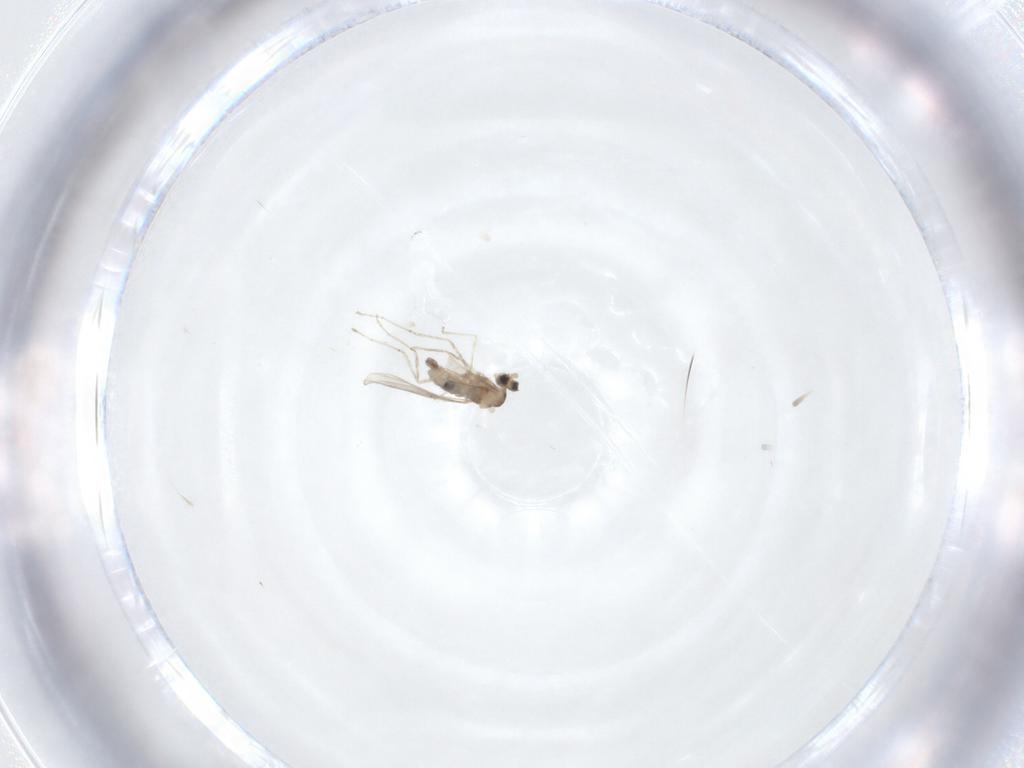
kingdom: Animalia
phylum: Arthropoda
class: Insecta
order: Diptera
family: Cecidomyiidae
